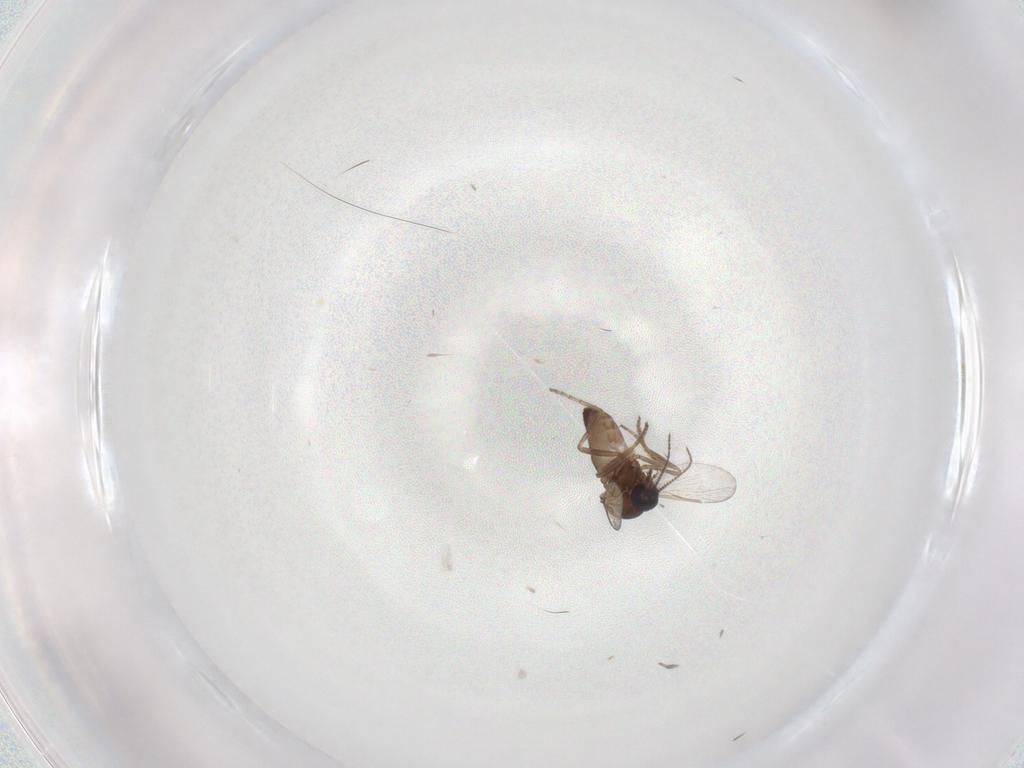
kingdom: Animalia
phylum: Arthropoda
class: Insecta
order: Diptera
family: Ceratopogonidae
